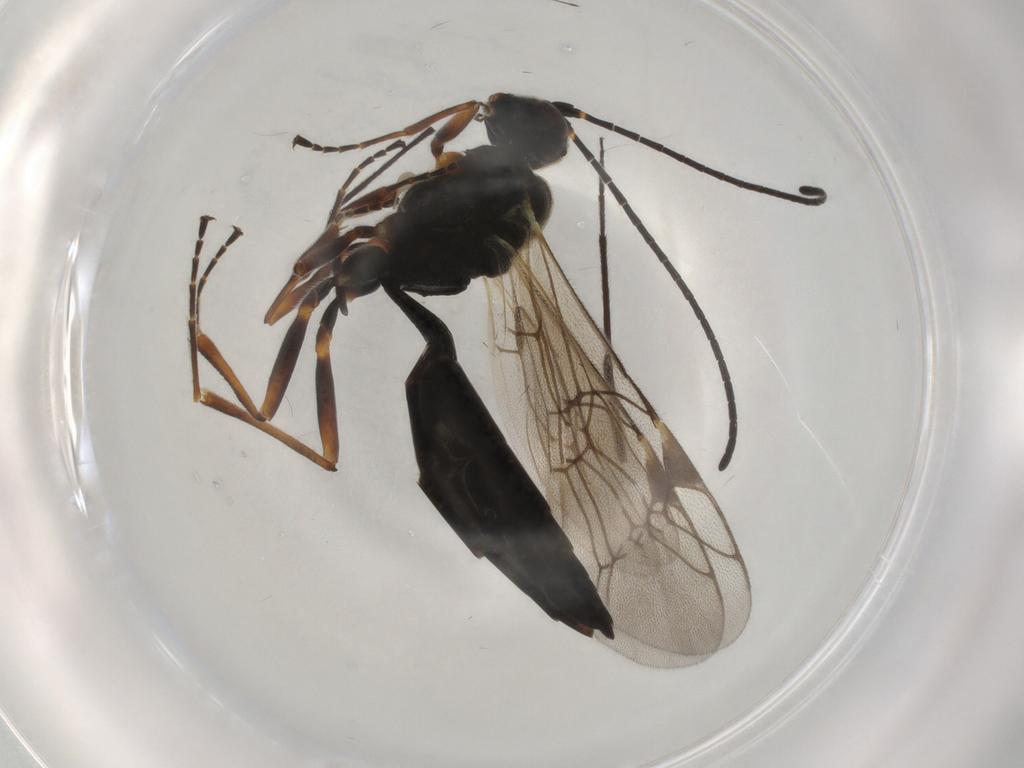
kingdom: Animalia
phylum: Arthropoda
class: Insecta
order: Hymenoptera
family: Ichneumonidae
